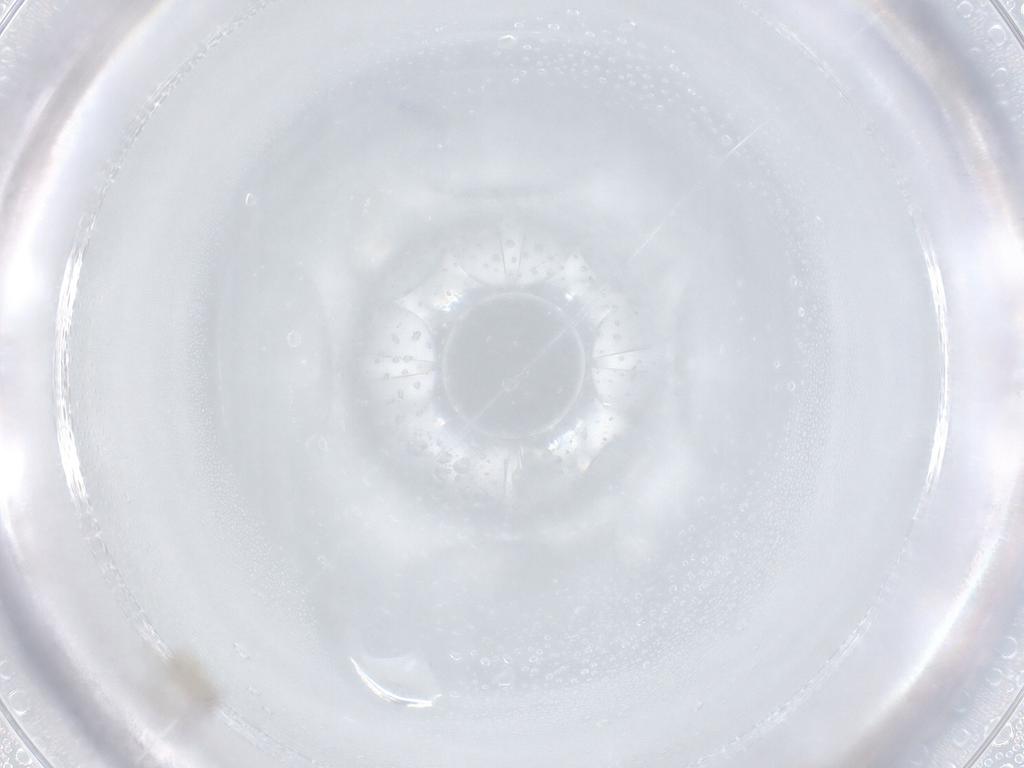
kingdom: Animalia
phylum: Arthropoda
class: Insecta
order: Hymenoptera
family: Mymaridae
